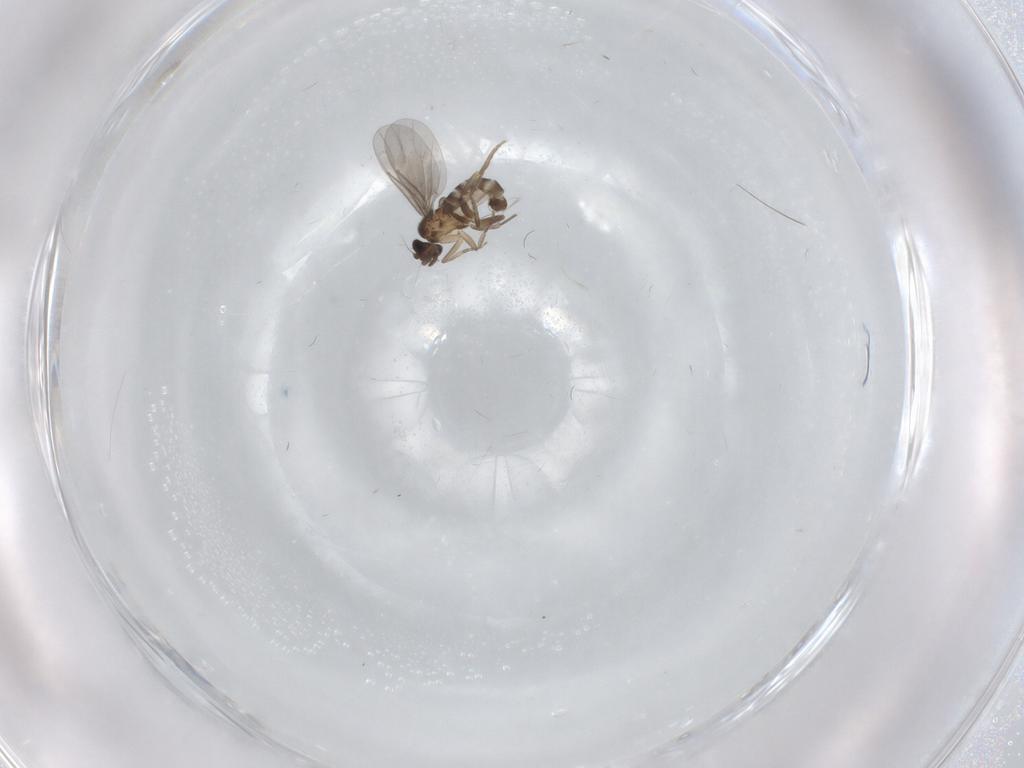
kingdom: Animalia
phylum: Arthropoda
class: Insecta
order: Diptera
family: Phoridae
